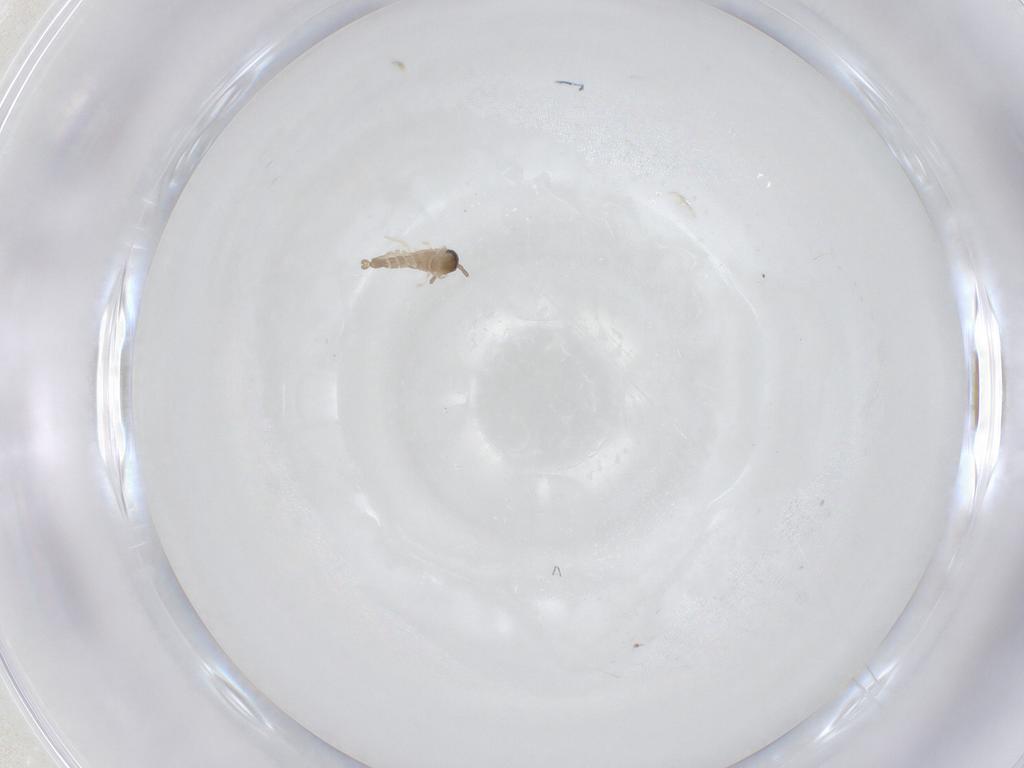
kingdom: Animalia
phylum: Arthropoda
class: Insecta
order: Diptera
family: Cecidomyiidae
